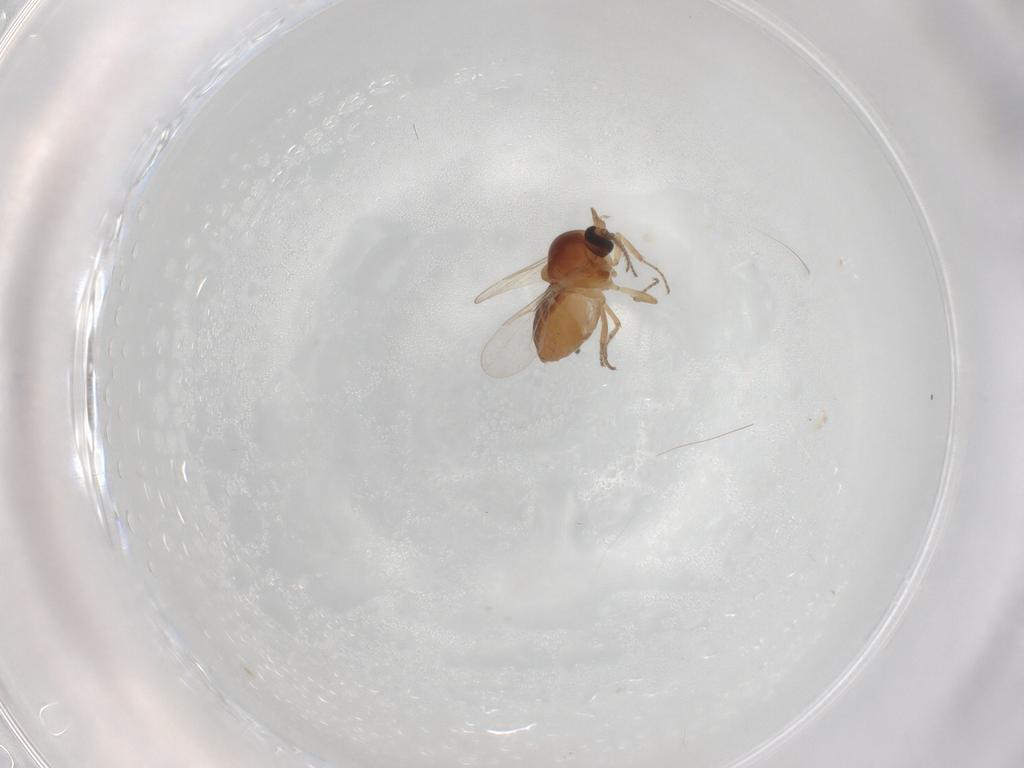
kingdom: Animalia
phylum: Arthropoda
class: Insecta
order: Diptera
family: Ceratopogonidae
